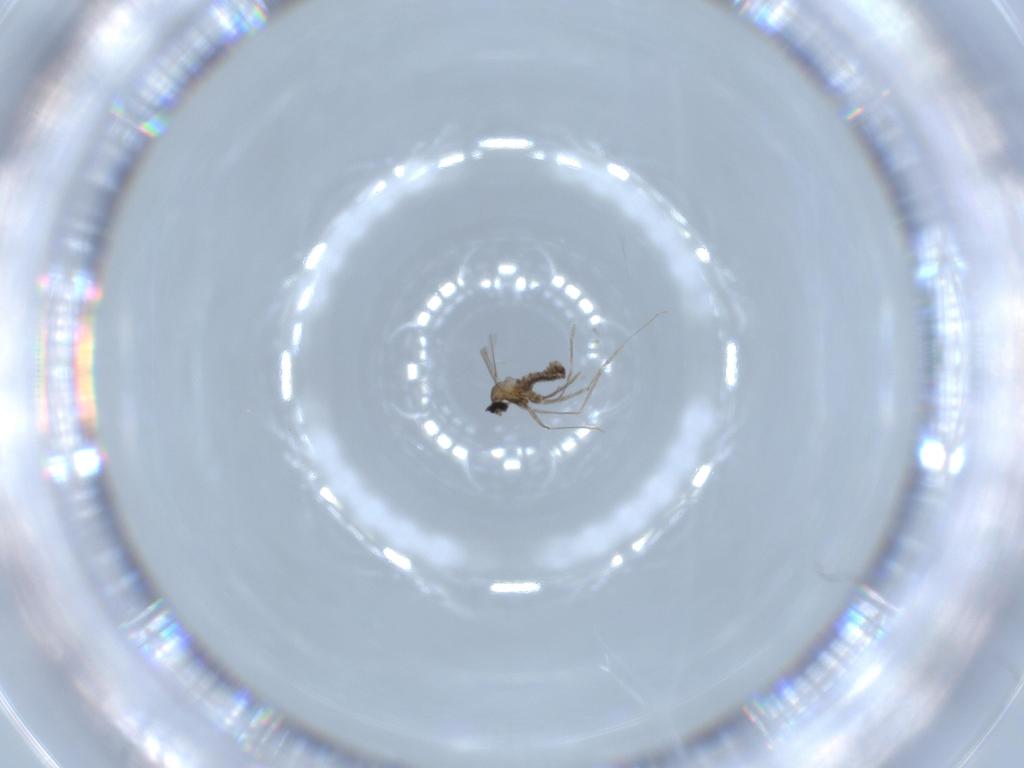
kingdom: Animalia
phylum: Arthropoda
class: Insecta
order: Diptera
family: Cecidomyiidae
